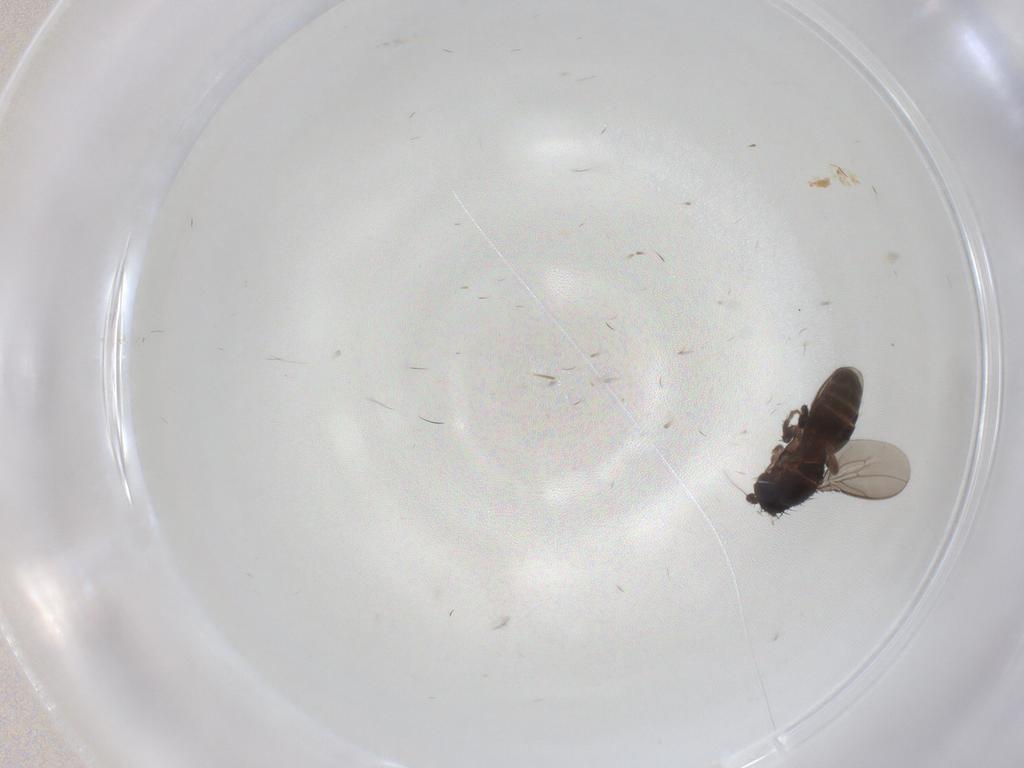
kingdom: Animalia
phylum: Arthropoda
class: Insecta
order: Diptera
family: Phoridae
